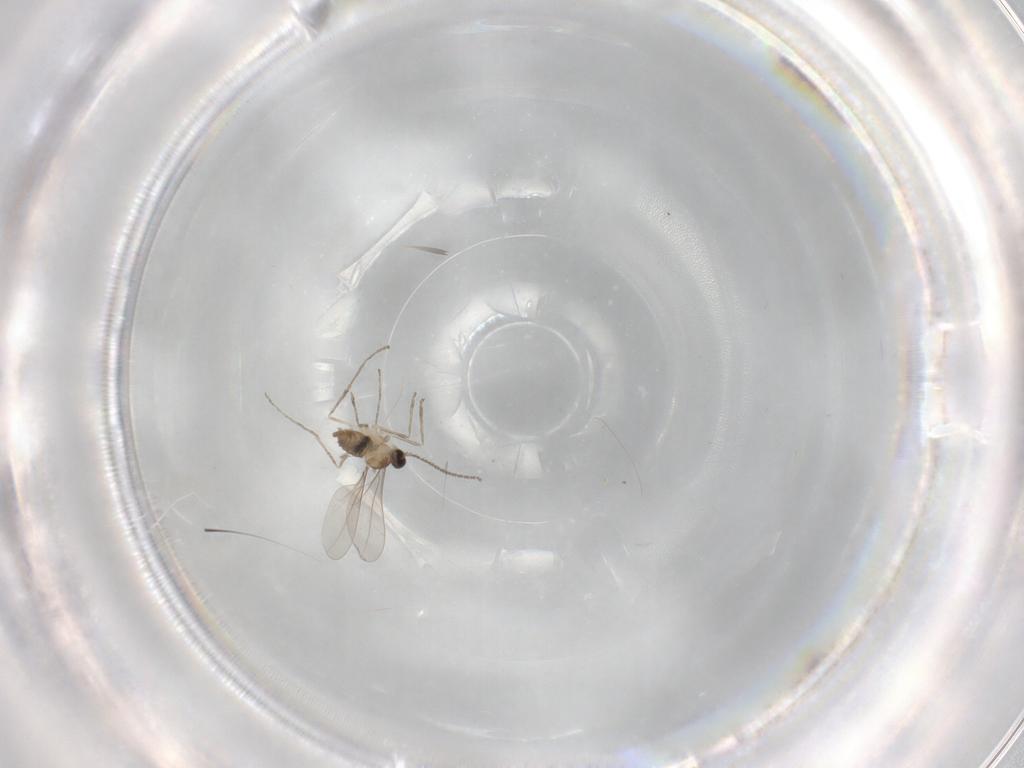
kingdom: Animalia
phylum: Arthropoda
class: Insecta
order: Diptera
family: Cecidomyiidae
